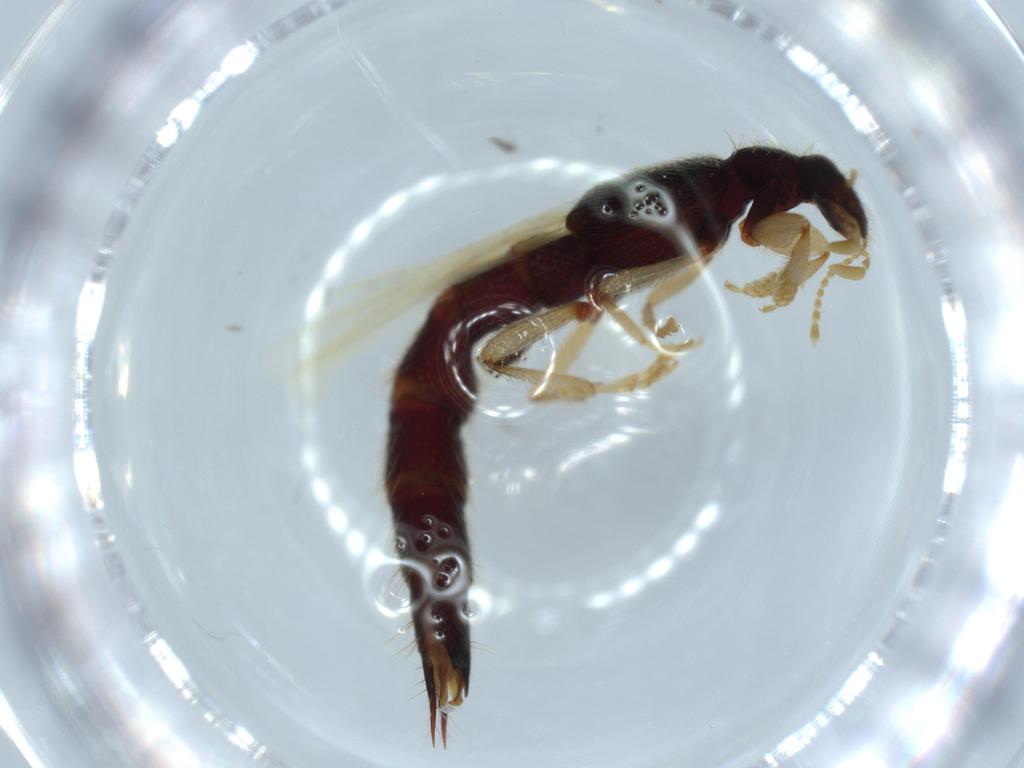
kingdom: Animalia
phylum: Arthropoda
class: Insecta
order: Coleoptera
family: Staphylinidae
